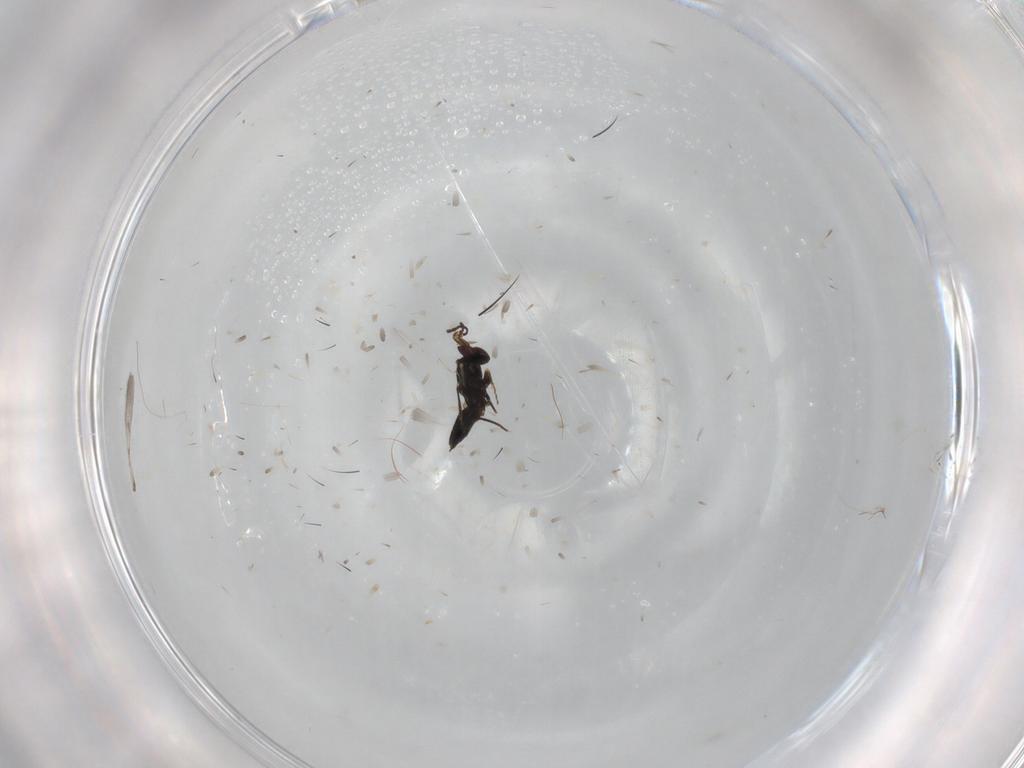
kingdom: Animalia
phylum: Arthropoda
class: Insecta
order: Hymenoptera
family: Mymaridae
